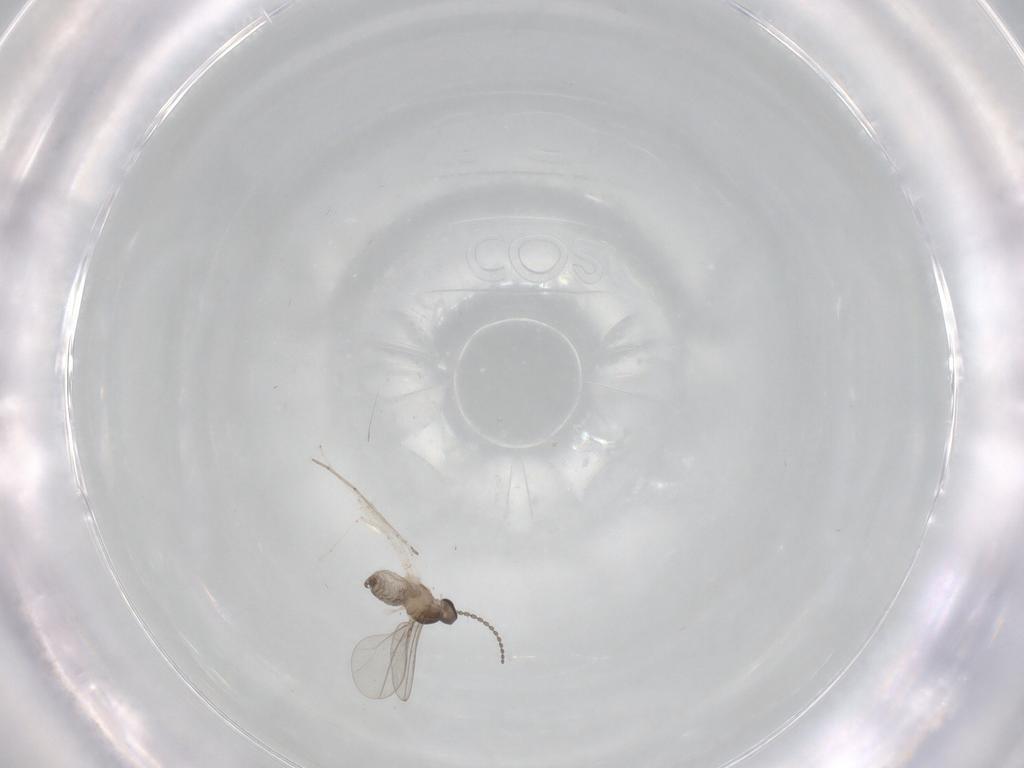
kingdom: Animalia
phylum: Arthropoda
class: Insecta
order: Diptera
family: Cecidomyiidae
